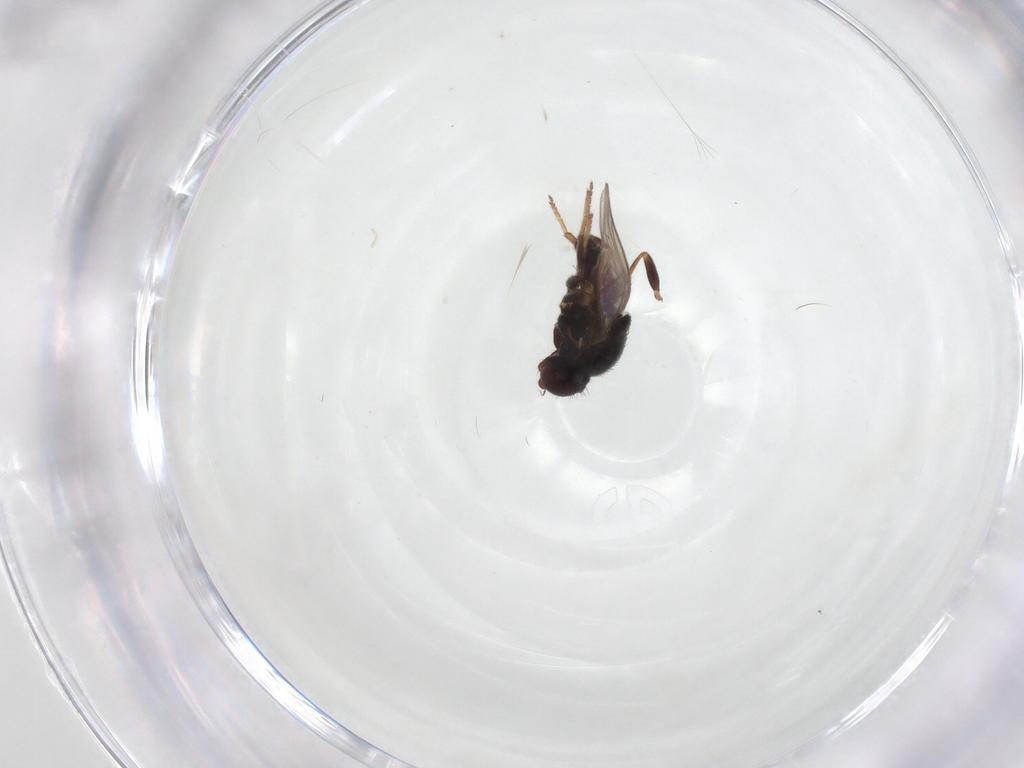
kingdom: Animalia
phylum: Arthropoda
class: Insecta
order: Diptera
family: Chloropidae
